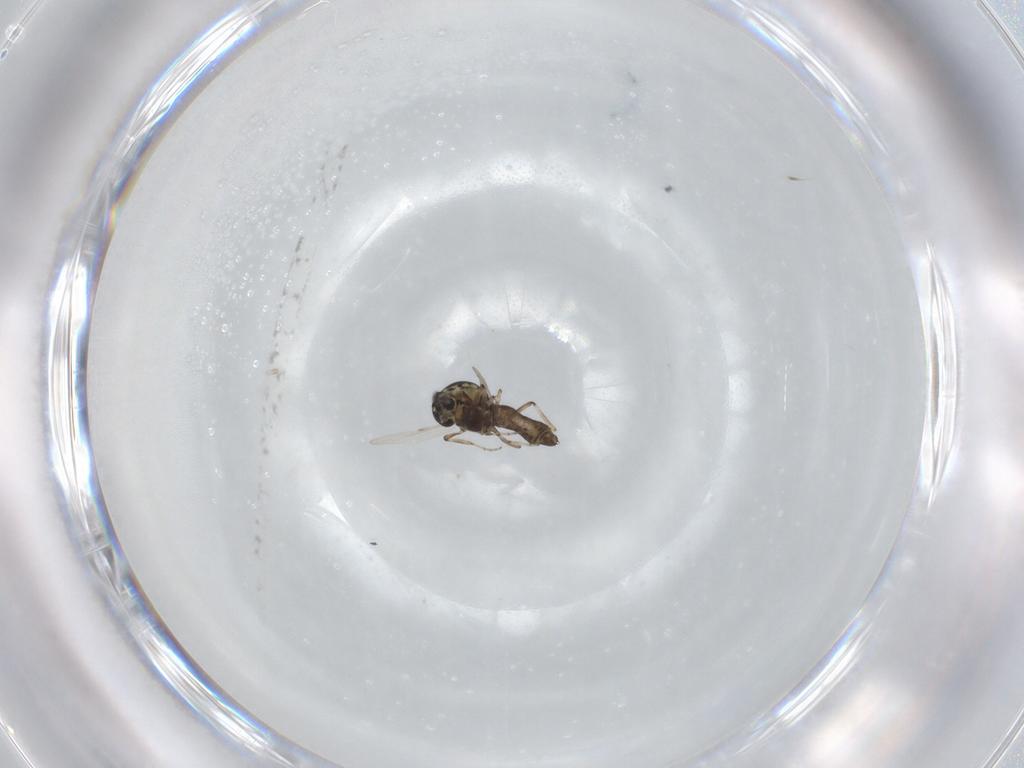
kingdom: Animalia
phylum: Arthropoda
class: Insecta
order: Diptera
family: Ceratopogonidae
